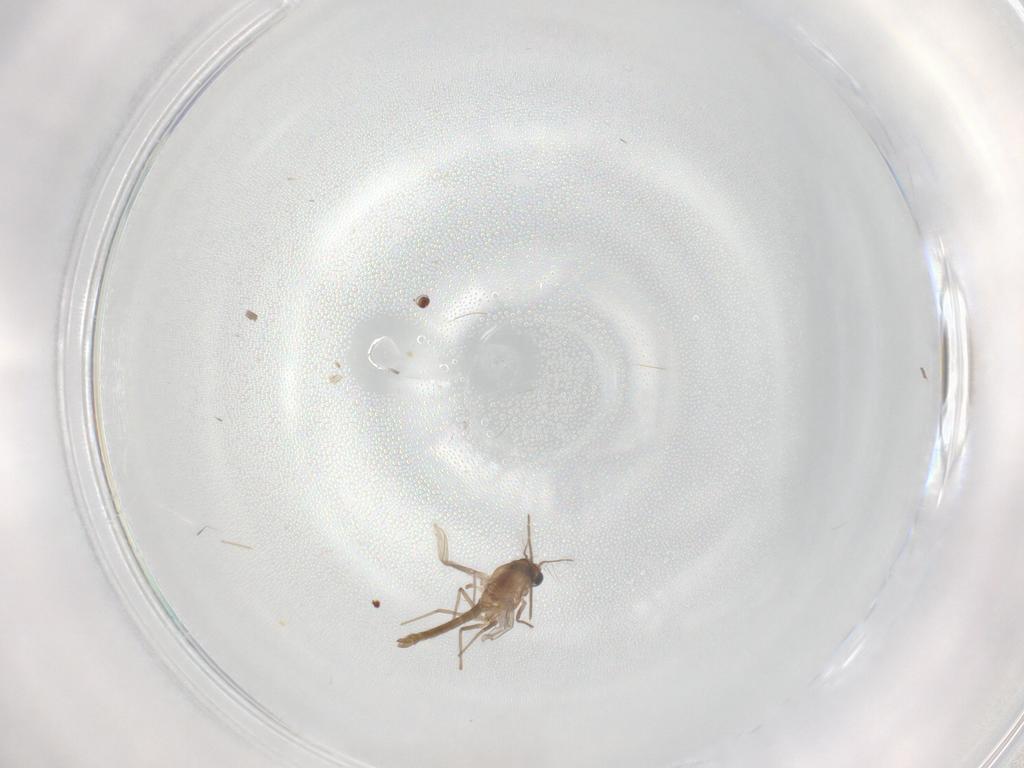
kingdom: Animalia
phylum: Arthropoda
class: Insecta
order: Diptera
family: Chironomidae
